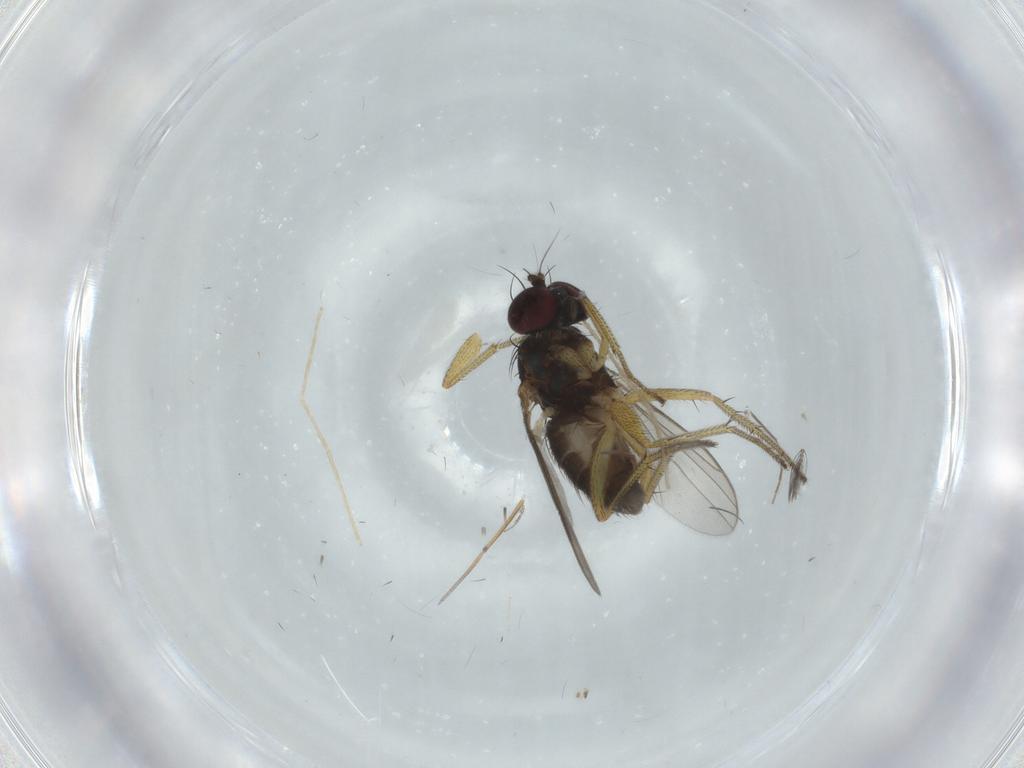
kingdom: Animalia
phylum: Arthropoda
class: Insecta
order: Diptera
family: Dolichopodidae
